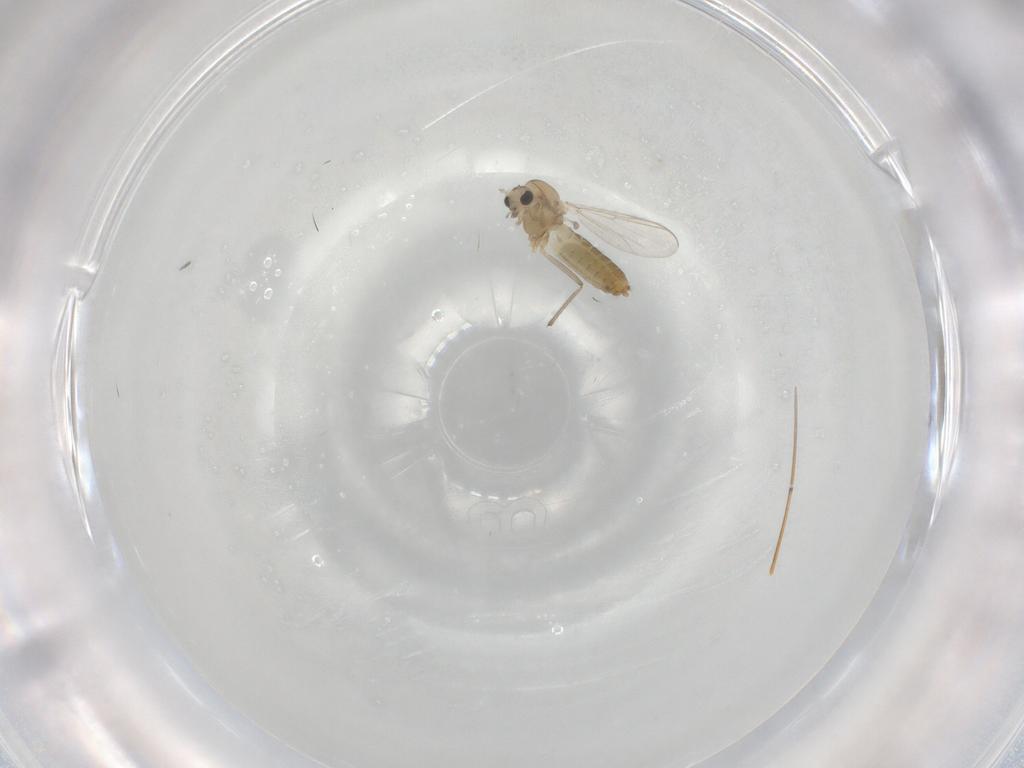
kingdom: Animalia
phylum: Arthropoda
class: Insecta
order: Diptera
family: Chironomidae
